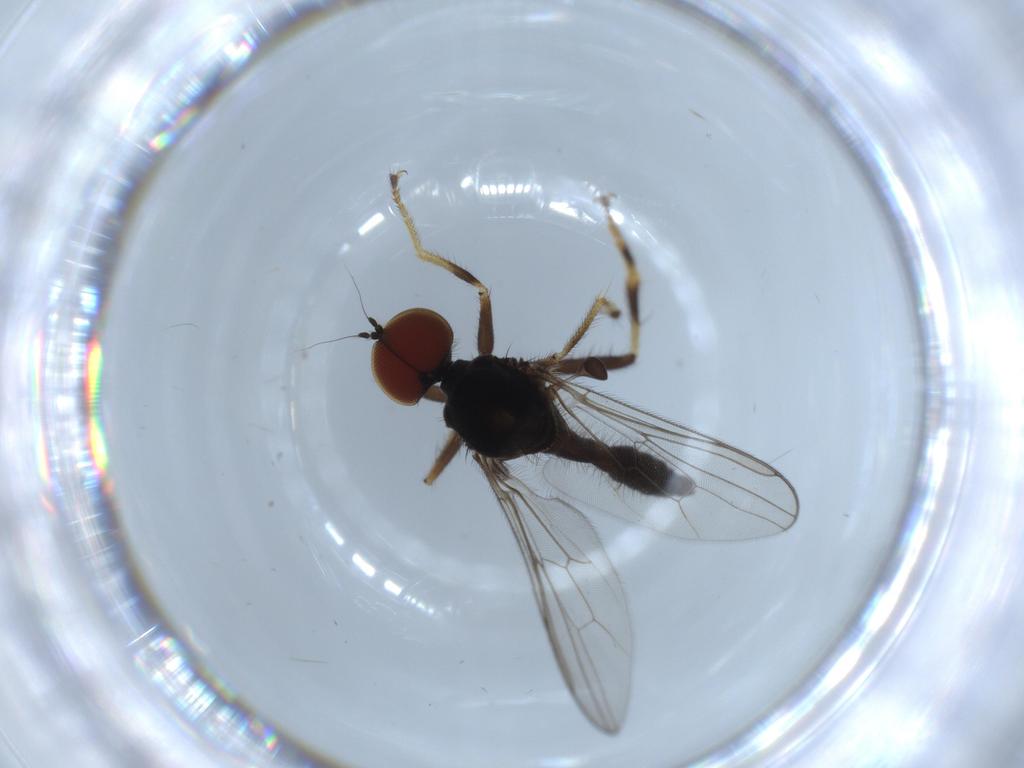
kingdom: Animalia
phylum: Arthropoda
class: Insecta
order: Diptera
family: Hybotidae
